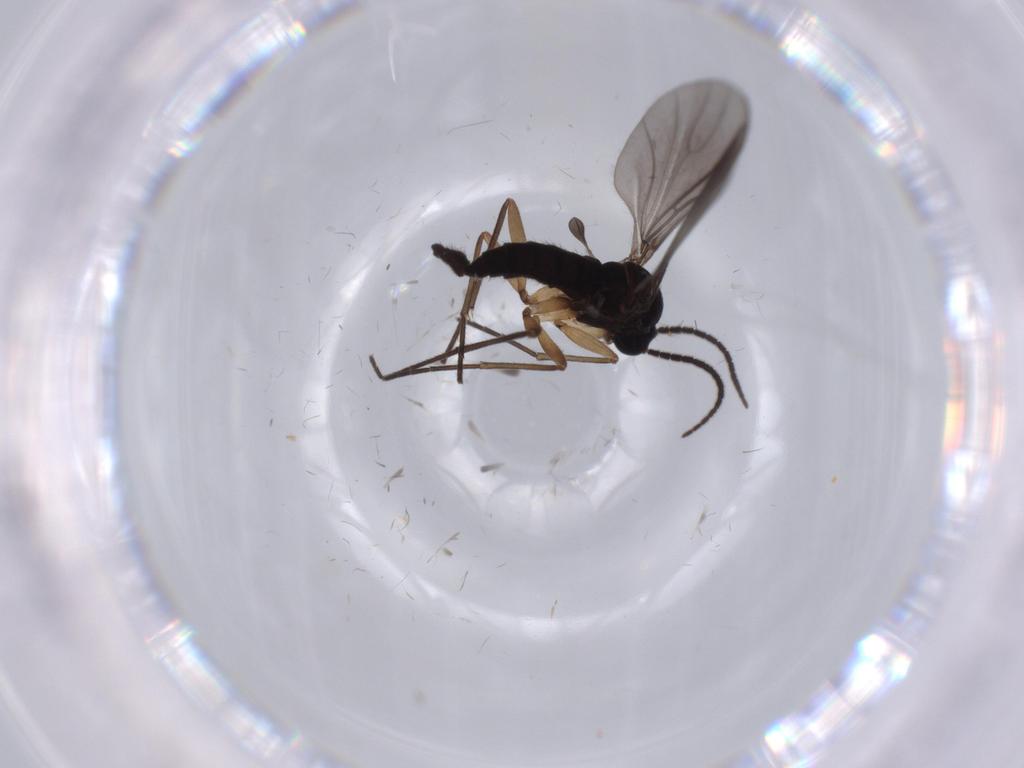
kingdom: Animalia
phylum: Arthropoda
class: Insecta
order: Diptera
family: Sciaridae
